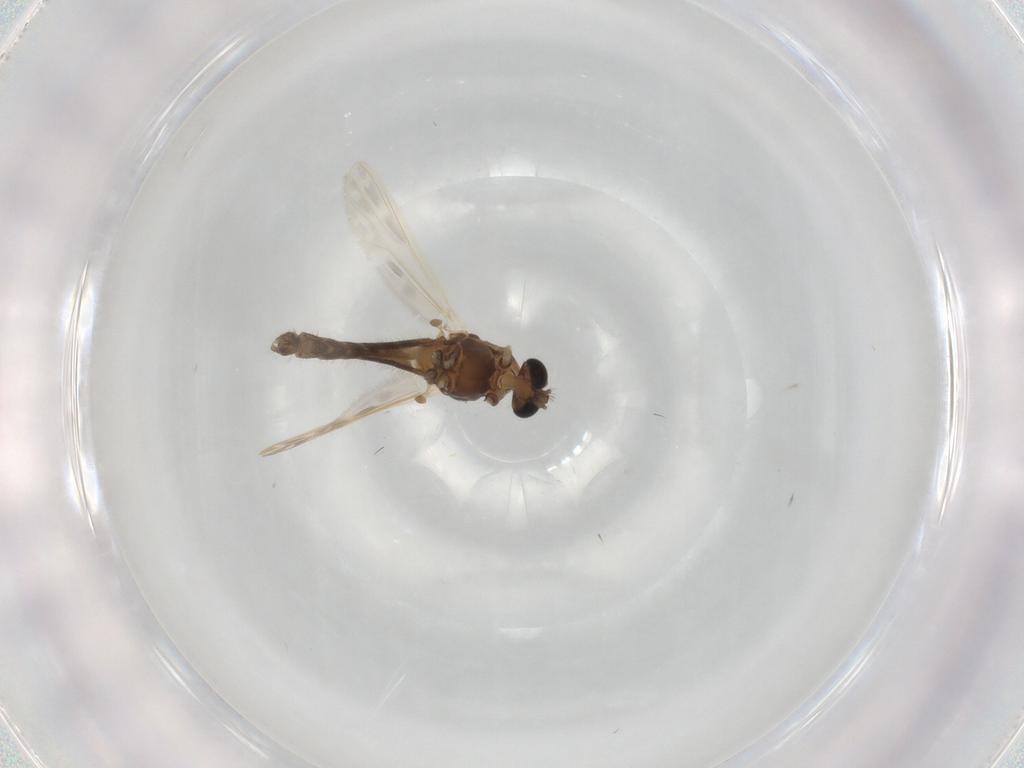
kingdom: Animalia
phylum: Arthropoda
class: Insecta
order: Diptera
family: Chironomidae
